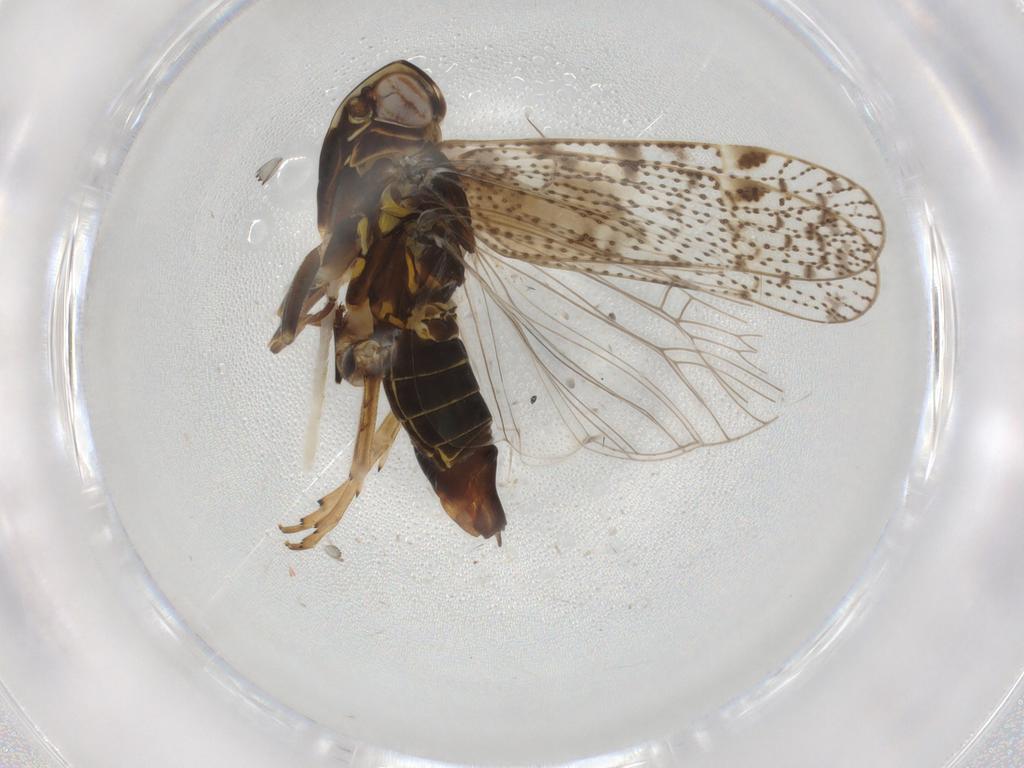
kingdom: Animalia
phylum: Arthropoda
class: Insecta
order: Hemiptera
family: Cixiidae
